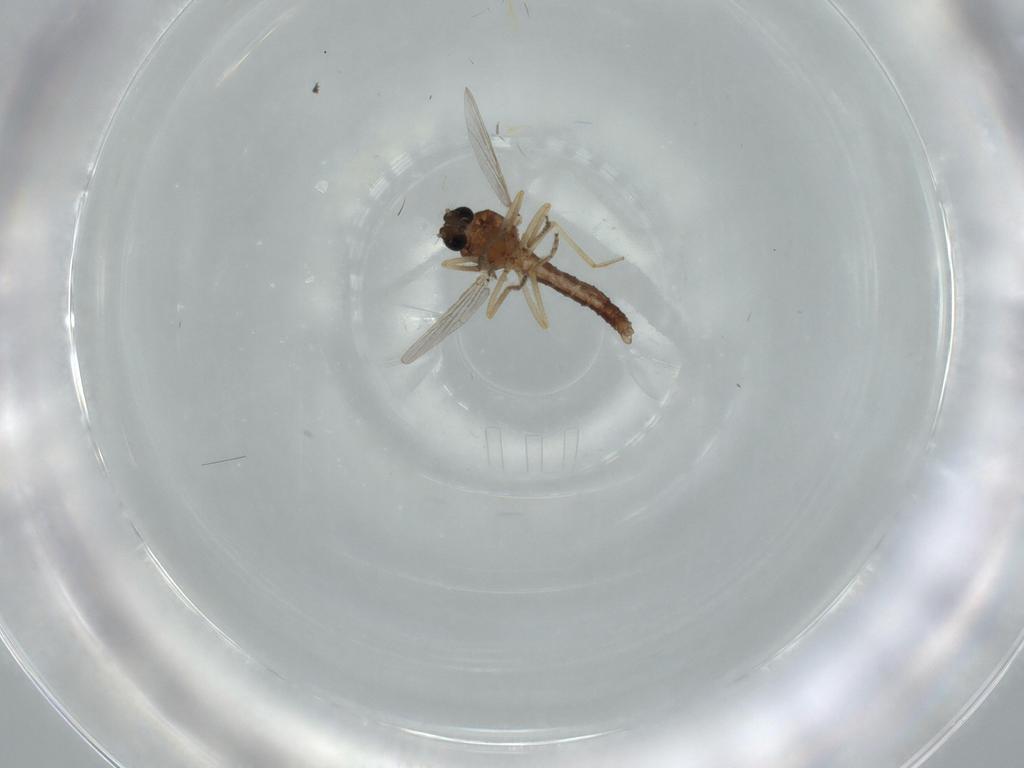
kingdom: Animalia
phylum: Arthropoda
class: Insecta
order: Diptera
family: Ceratopogonidae
